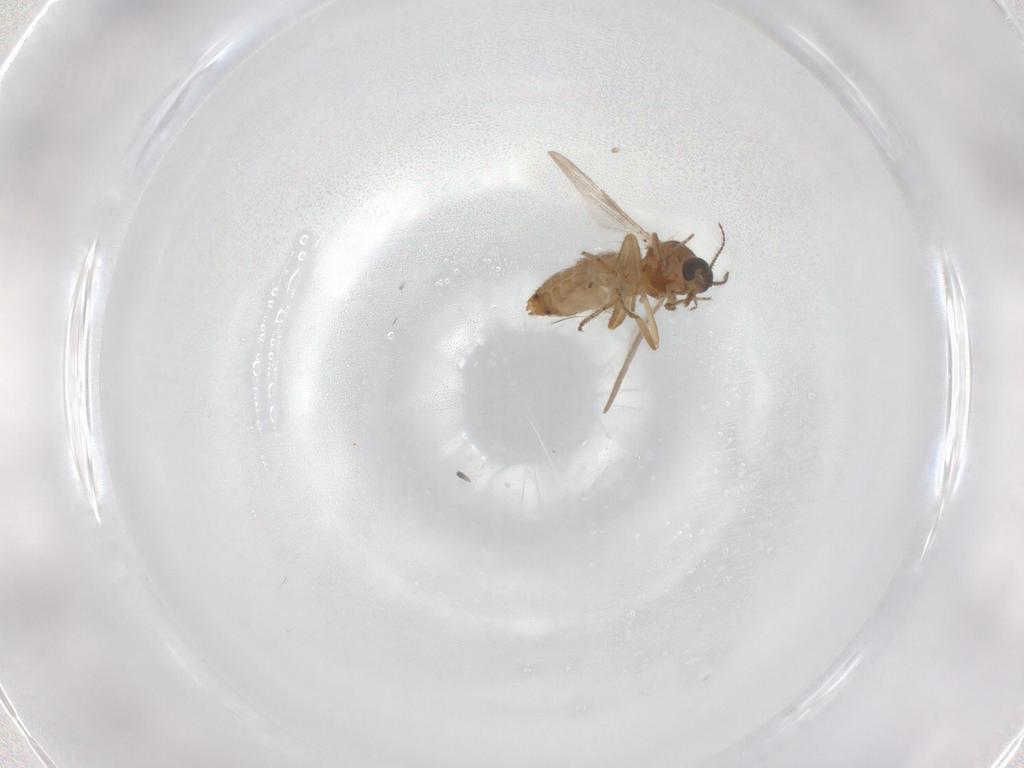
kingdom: Animalia
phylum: Arthropoda
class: Insecta
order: Diptera
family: Ceratopogonidae
